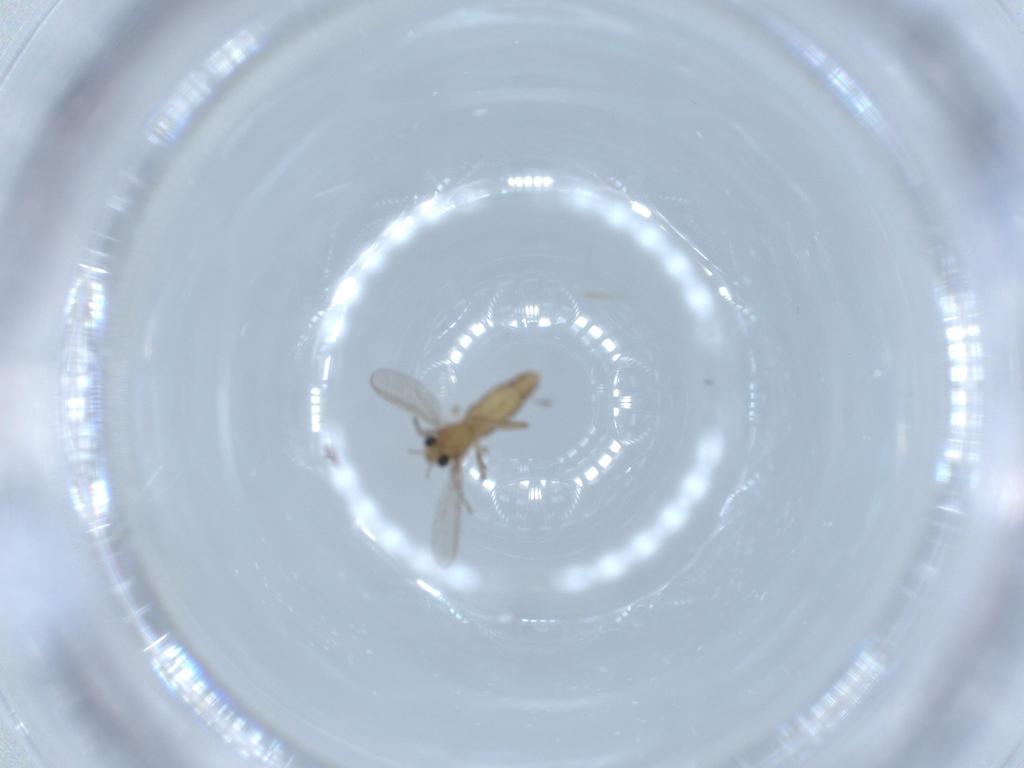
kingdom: Animalia
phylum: Arthropoda
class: Insecta
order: Diptera
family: Chironomidae
